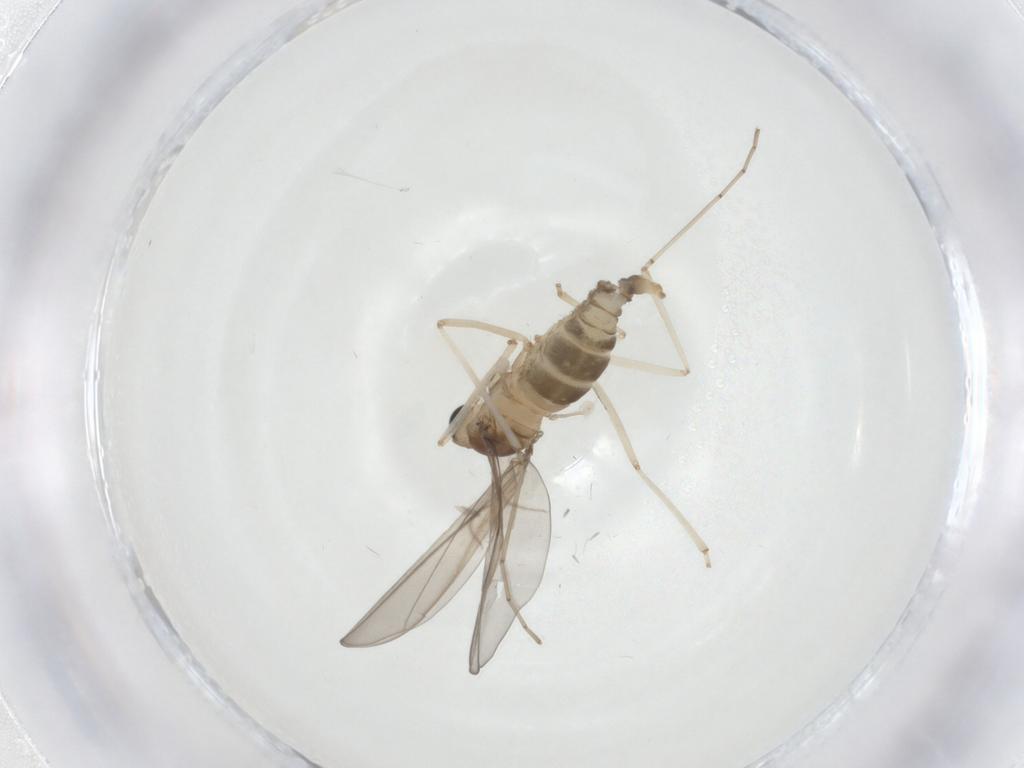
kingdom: Animalia
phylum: Arthropoda
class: Insecta
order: Diptera
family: Cecidomyiidae
